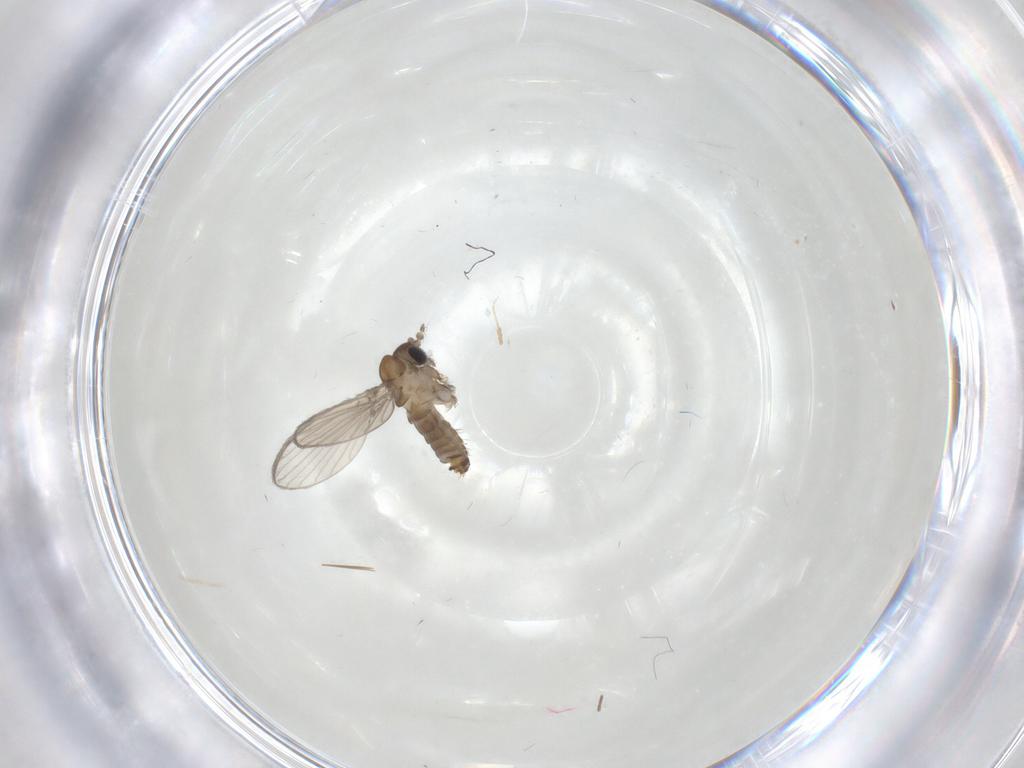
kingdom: Animalia
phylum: Arthropoda
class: Insecta
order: Diptera
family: Psychodidae
